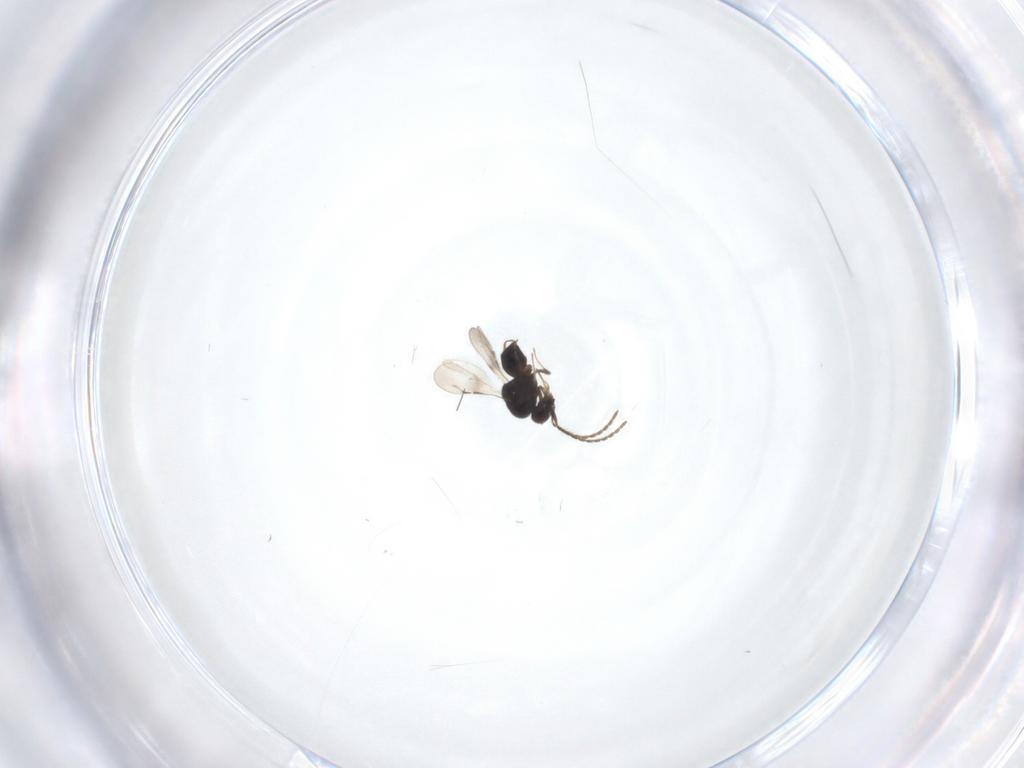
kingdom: Animalia
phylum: Arthropoda
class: Insecta
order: Hymenoptera
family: Ceraphronidae
